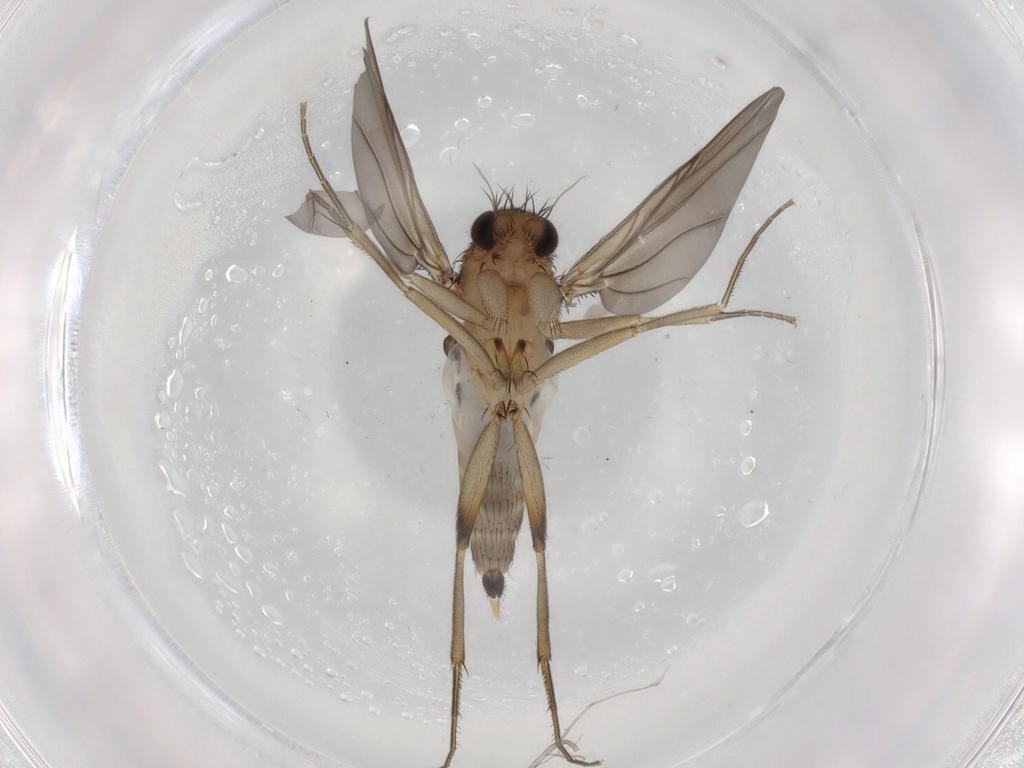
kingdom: Animalia
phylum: Arthropoda
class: Insecta
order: Diptera
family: Phoridae
